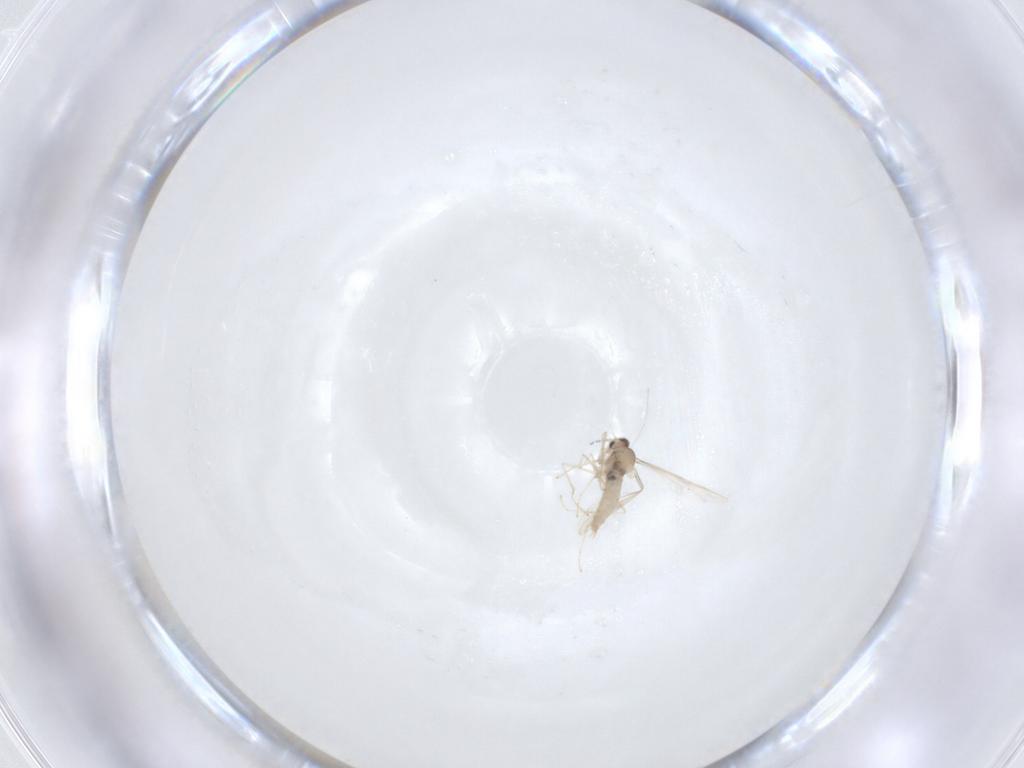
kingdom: Animalia
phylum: Arthropoda
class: Insecta
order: Diptera
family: Cecidomyiidae
